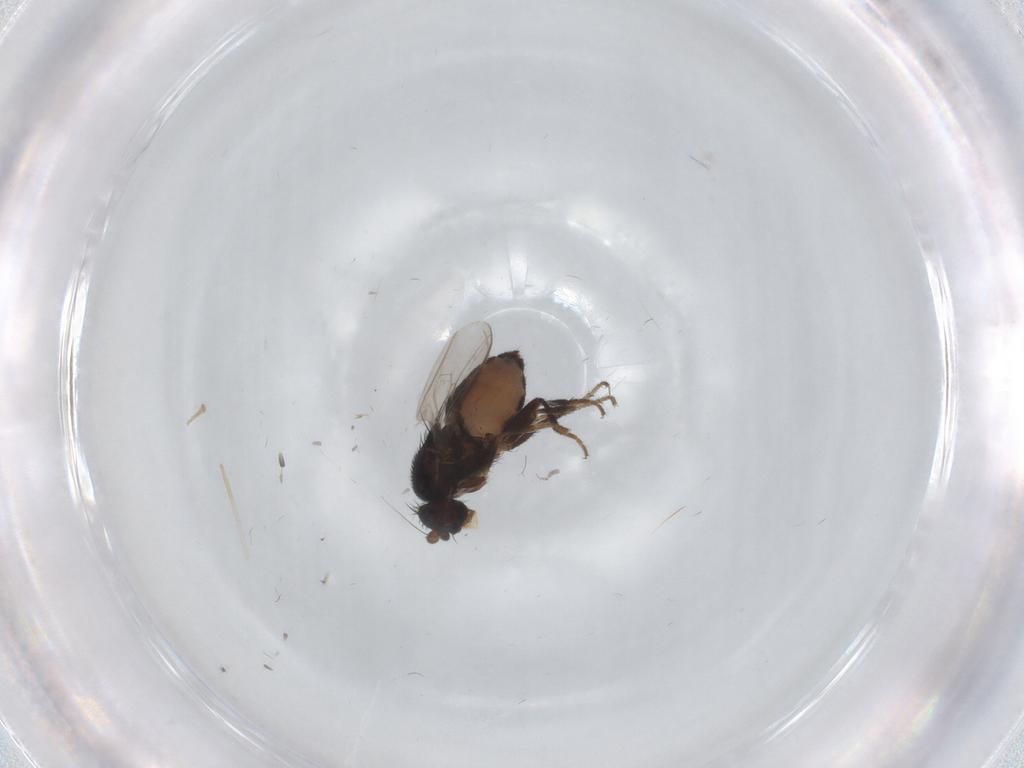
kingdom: Animalia
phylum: Arthropoda
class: Insecta
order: Diptera
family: Sphaeroceridae
